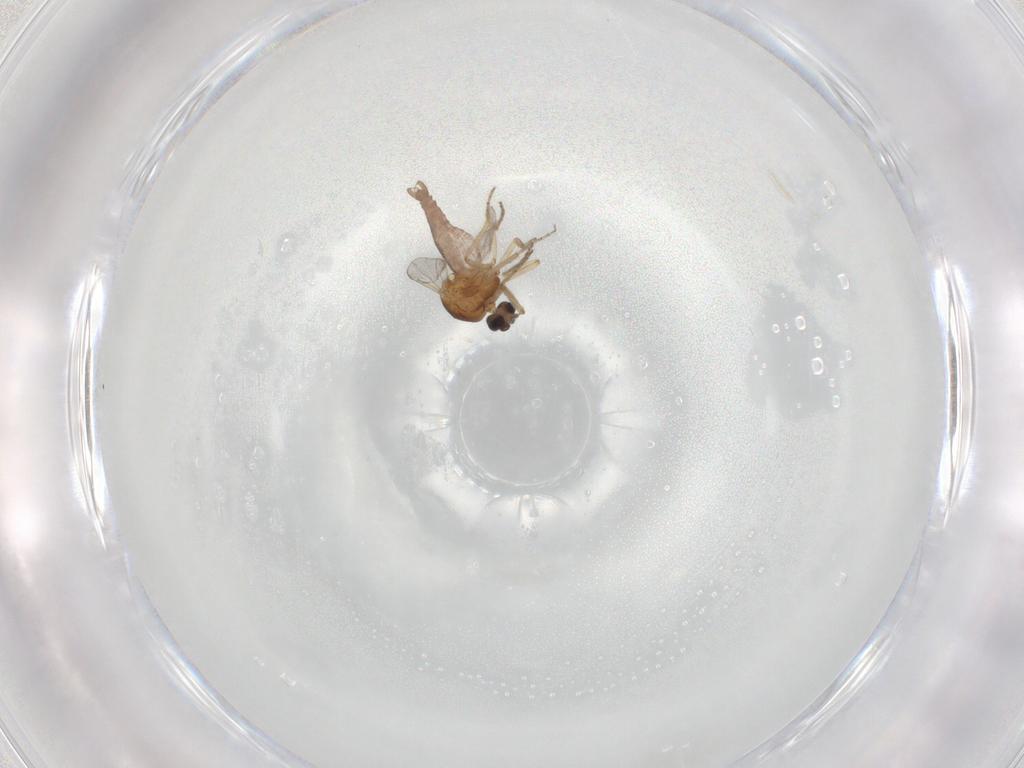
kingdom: Animalia
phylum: Arthropoda
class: Insecta
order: Diptera
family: Ceratopogonidae
